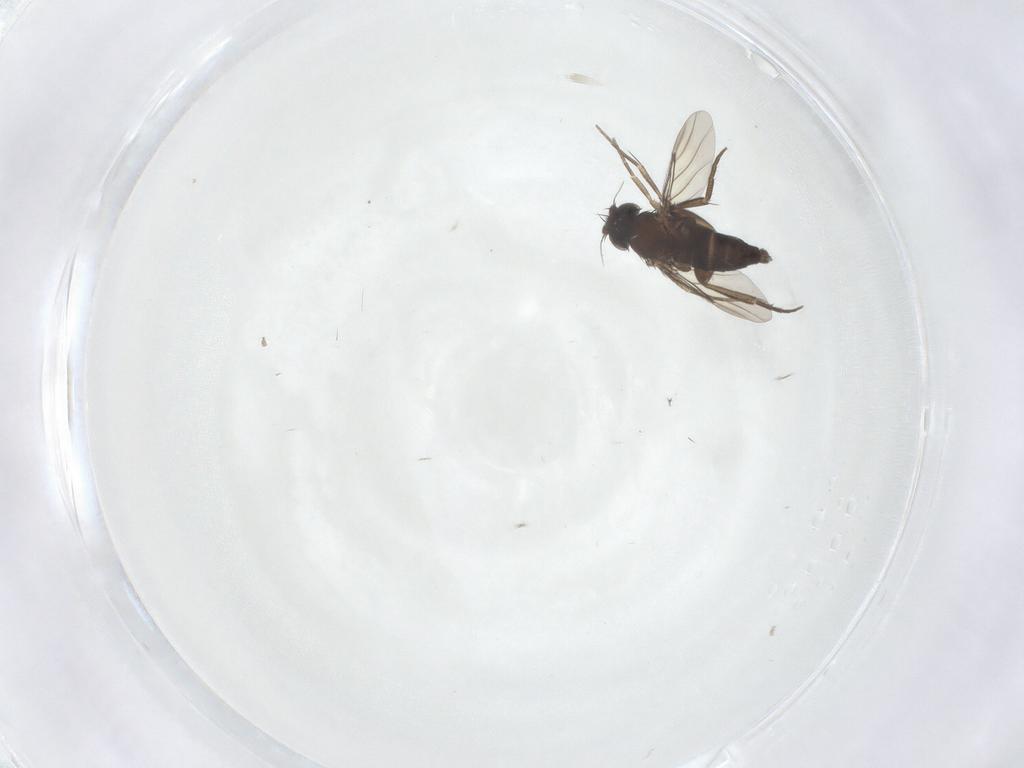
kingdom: Animalia
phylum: Arthropoda
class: Insecta
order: Diptera
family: Phoridae
